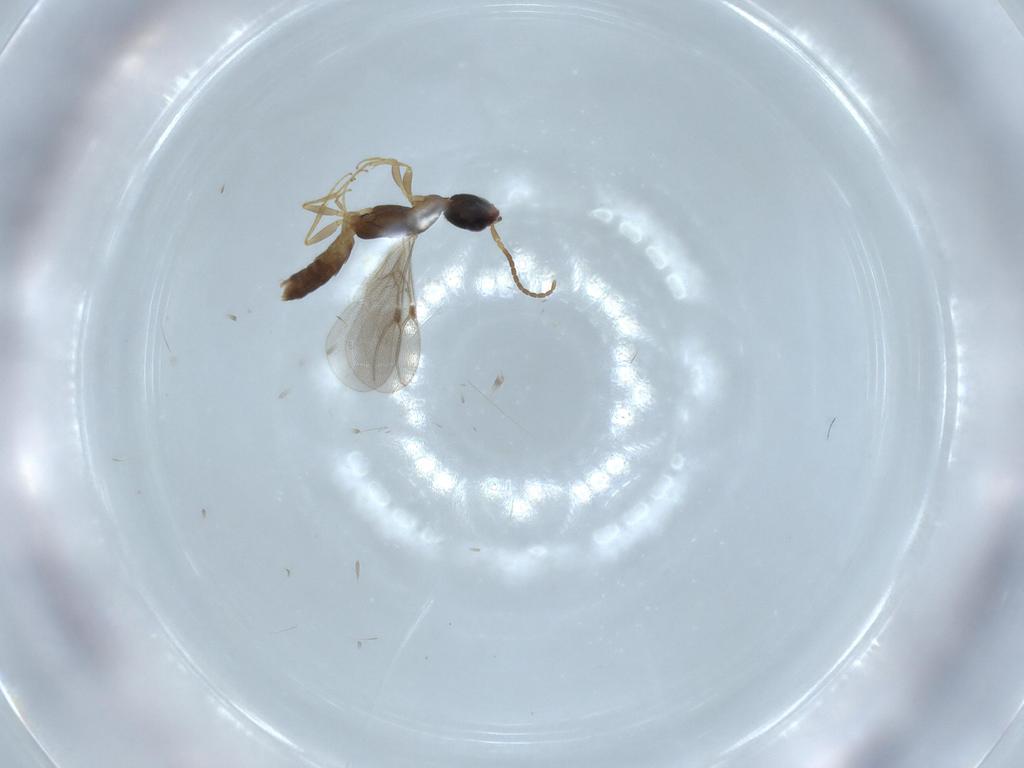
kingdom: Animalia
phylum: Arthropoda
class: Insecta
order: Hymenoptera
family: Bethylidae
